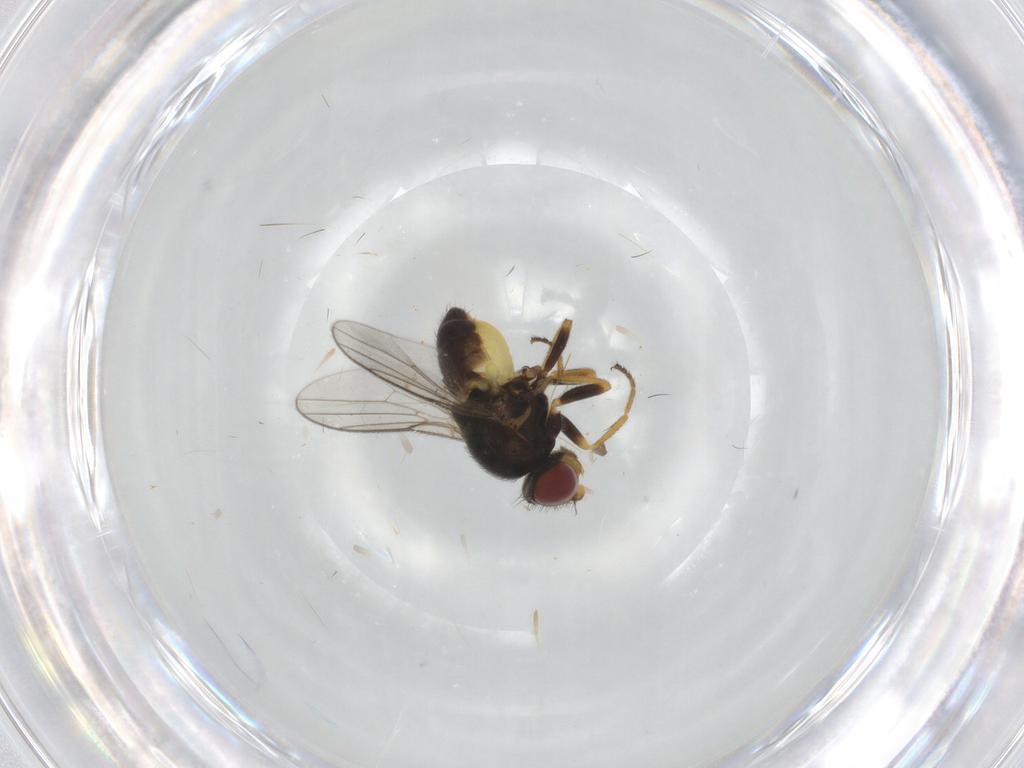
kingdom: Animalia
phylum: Arthropoda
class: Insecta
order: Diptera
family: Chloropidae
